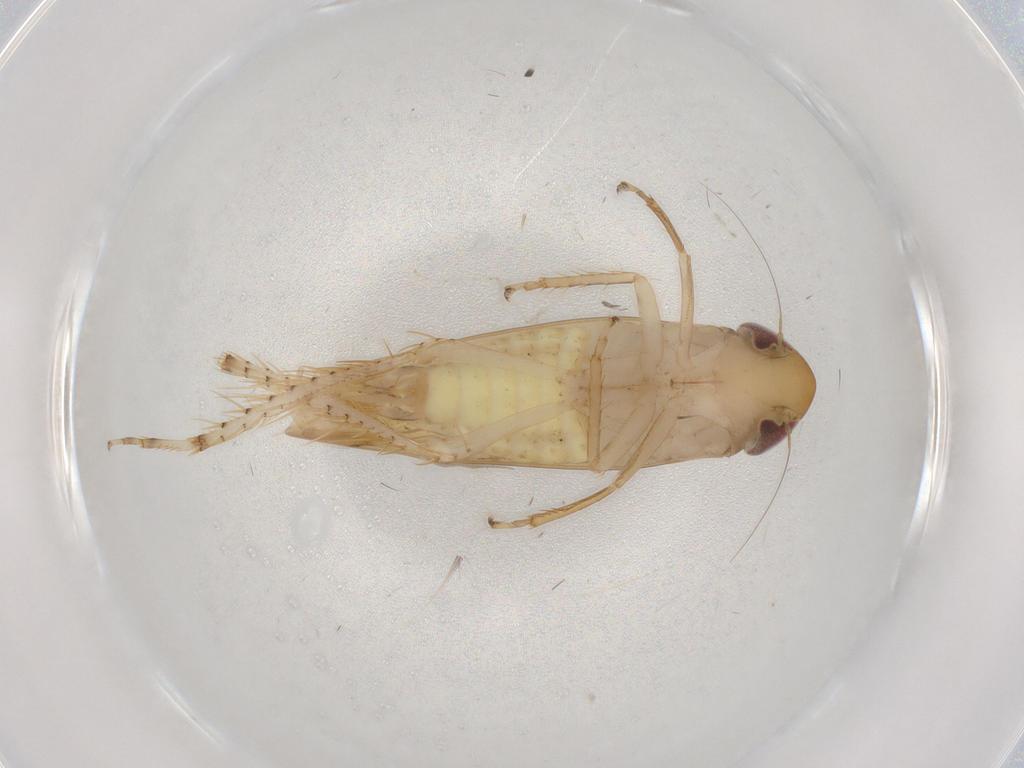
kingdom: Animalia
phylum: Arthropoda
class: Insecta
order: Hemiptera
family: Cicadellidae
